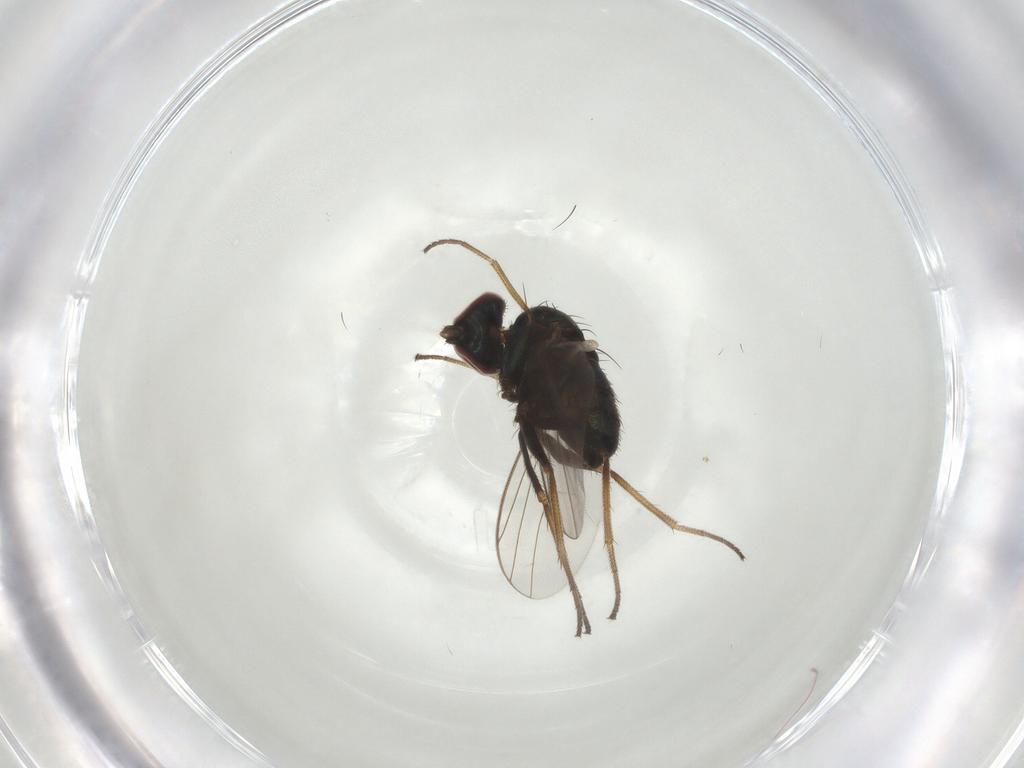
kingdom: Animalia
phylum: Arthropoda
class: Insecta
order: Diptera
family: Dolichopodidae
